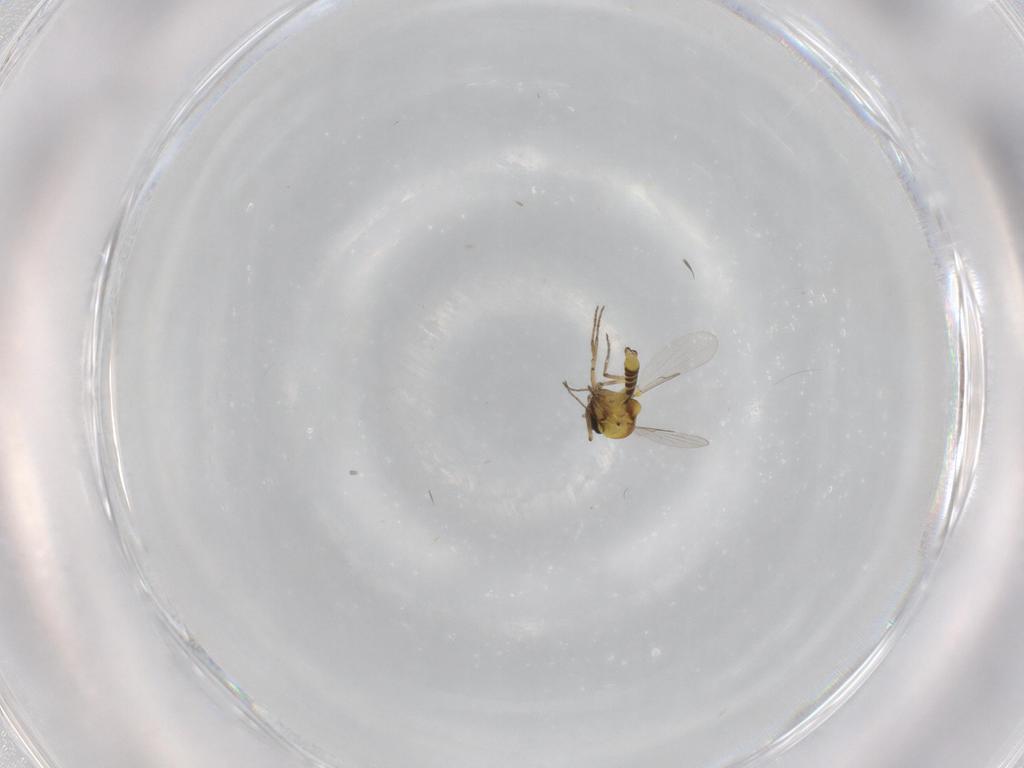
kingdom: Animalia
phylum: Arthropoda
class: Insecta
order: Diptera
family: Ceratopogonidae
